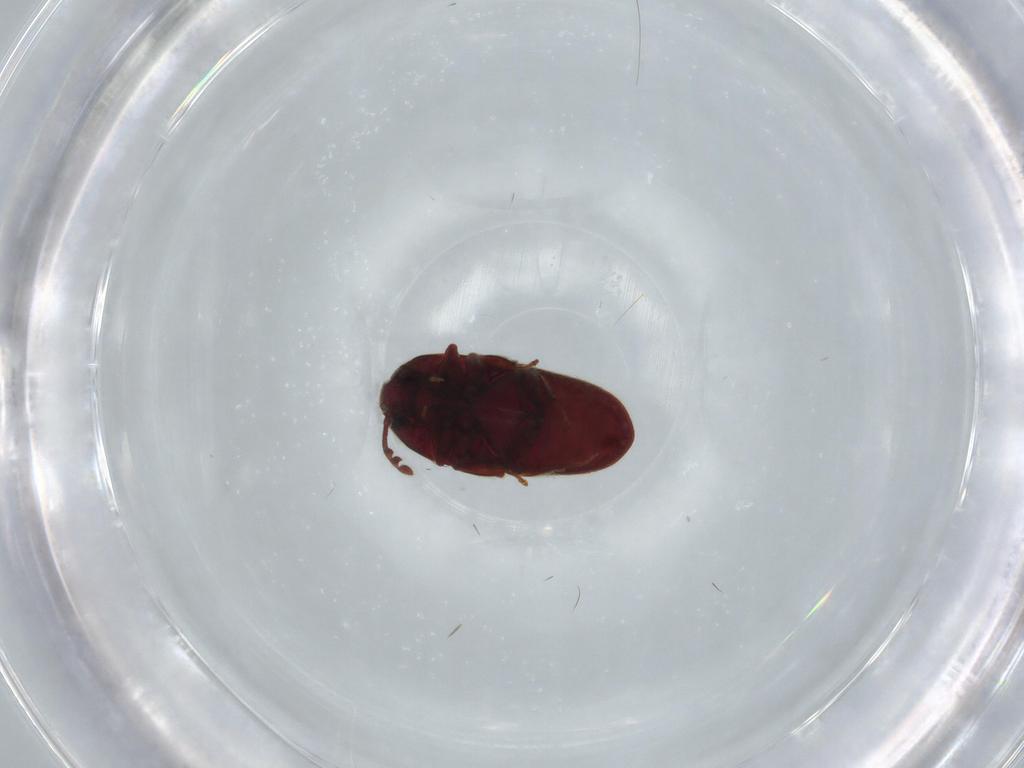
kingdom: Animalia
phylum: Arthropoda
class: Insecta
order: Coleoptera
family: Throscidae
